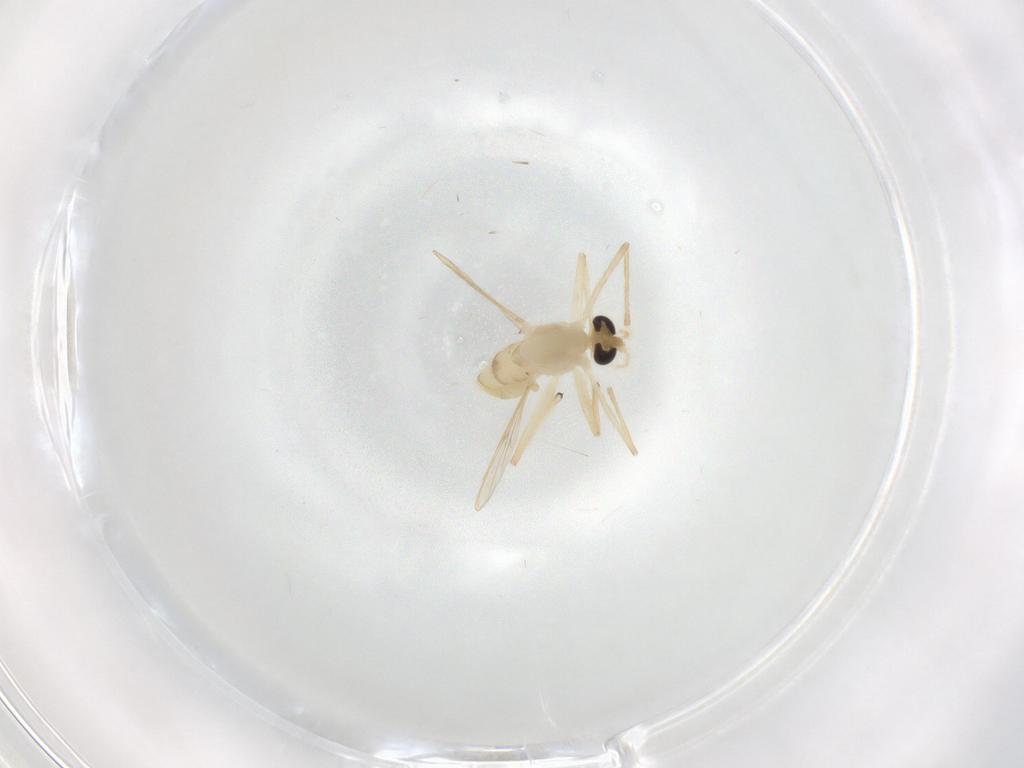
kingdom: Animalia
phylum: Arthropoda
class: Insecta
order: Diptera
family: Chironomidae
